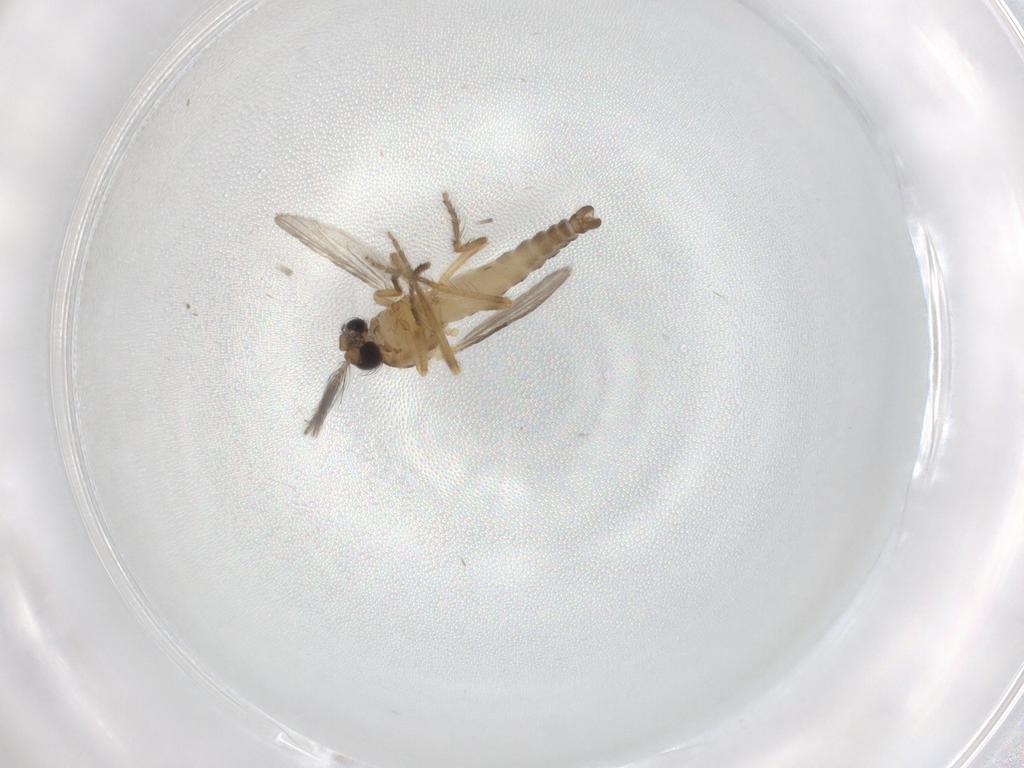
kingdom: Animalia
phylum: Arthropoda
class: Insecta
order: Diptera
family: Ceratopogonidae
